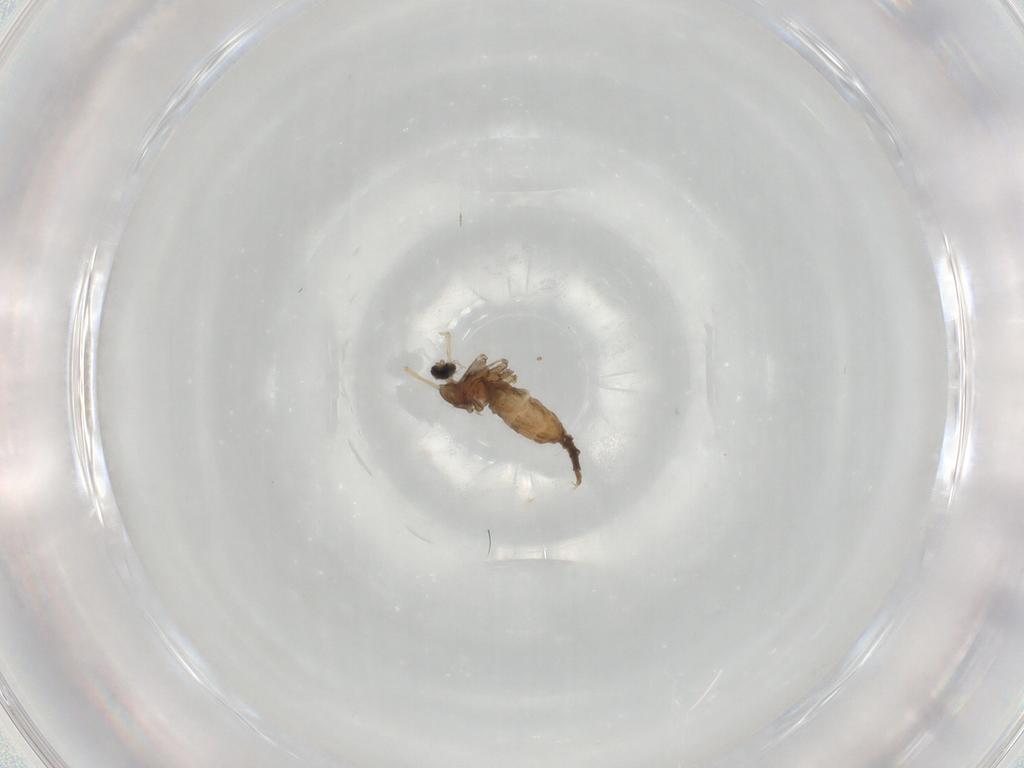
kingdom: Animalia
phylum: Arthropoda
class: Insecta
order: Diptera
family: Cecidomyiidae
